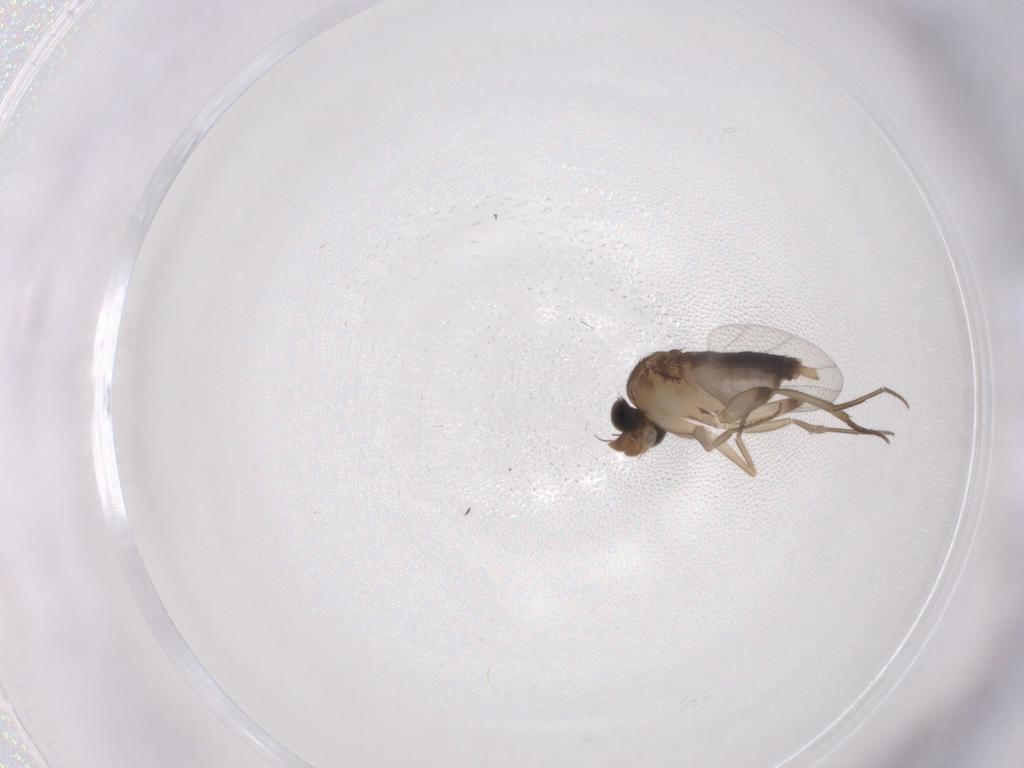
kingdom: Animalia
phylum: Arthropoda
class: Insecta
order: Diptera
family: Phoridae
